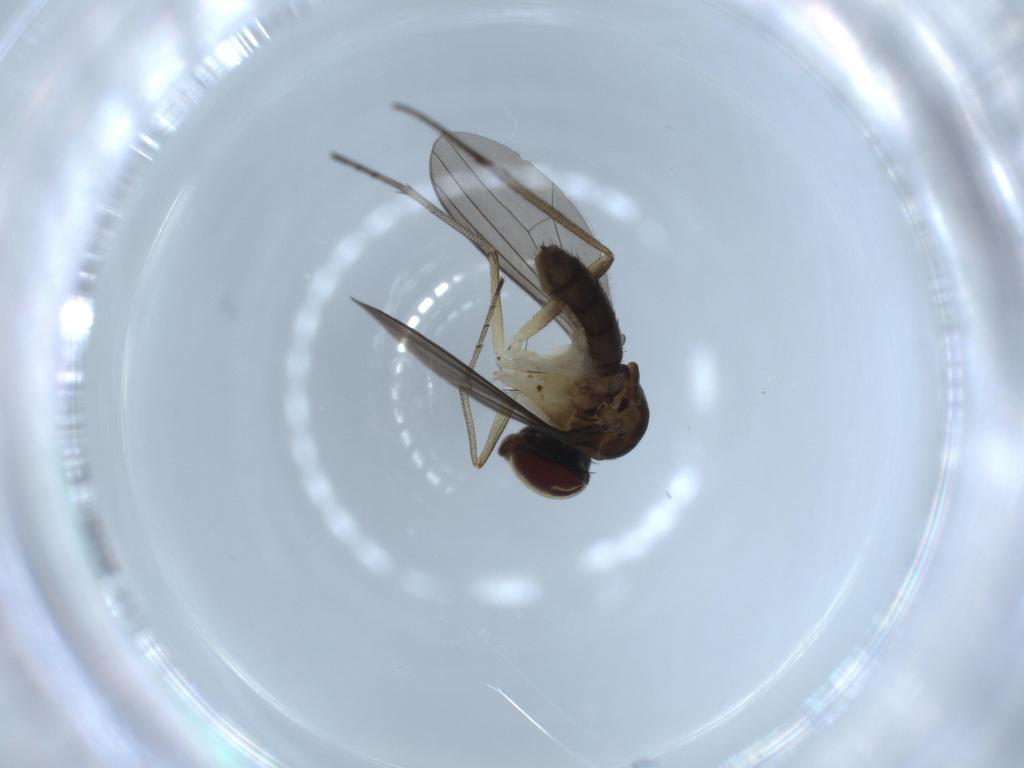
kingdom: Animalia
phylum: Arthropoda
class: Insecta
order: Diptera
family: Dolichopodidae
